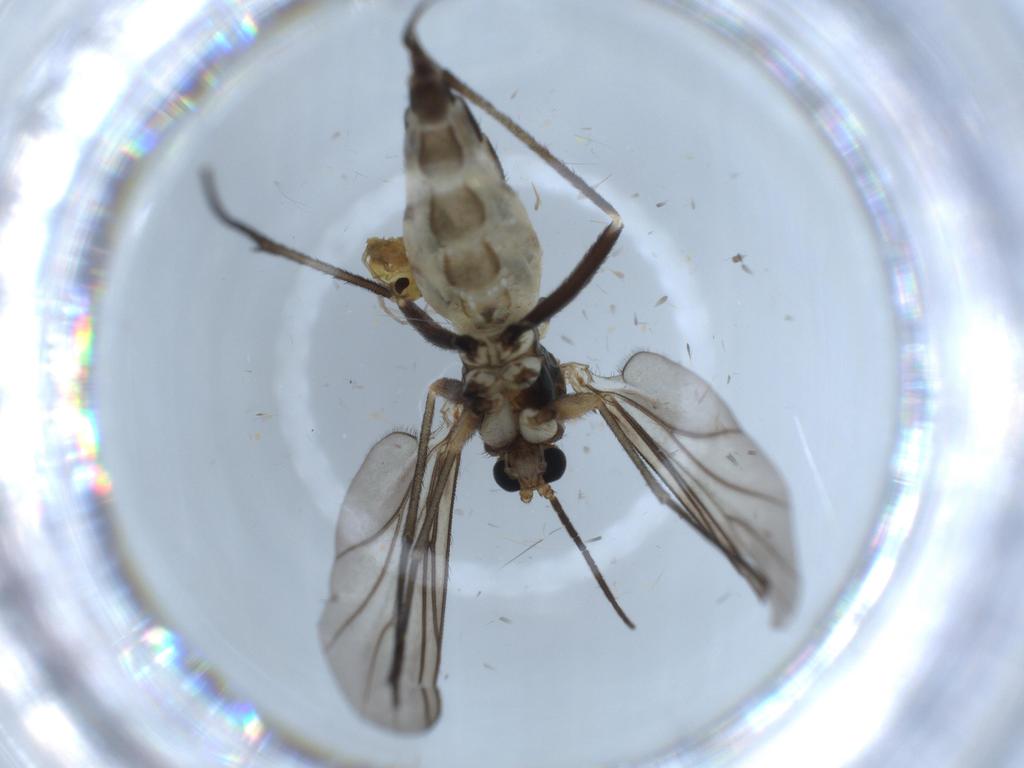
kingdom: Animalia
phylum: Arthropoda
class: Insecta
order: Diptera
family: Chironomidae
